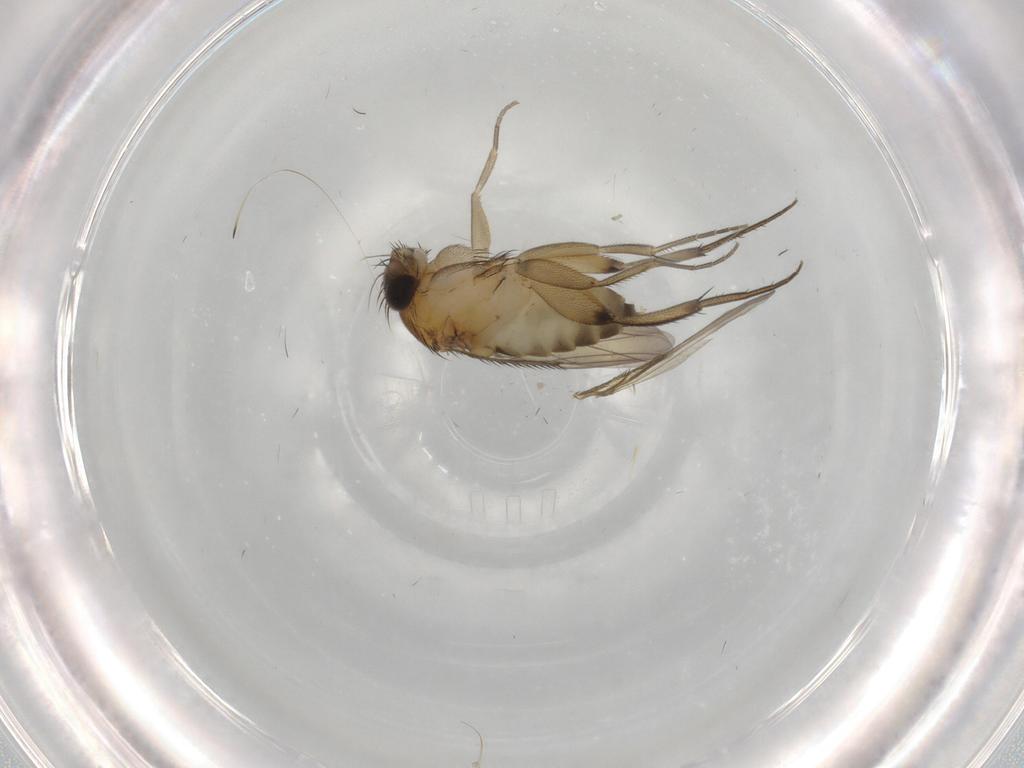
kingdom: Animalia
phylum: Arthropoda
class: Insecta
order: Diptera
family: Phoridae
